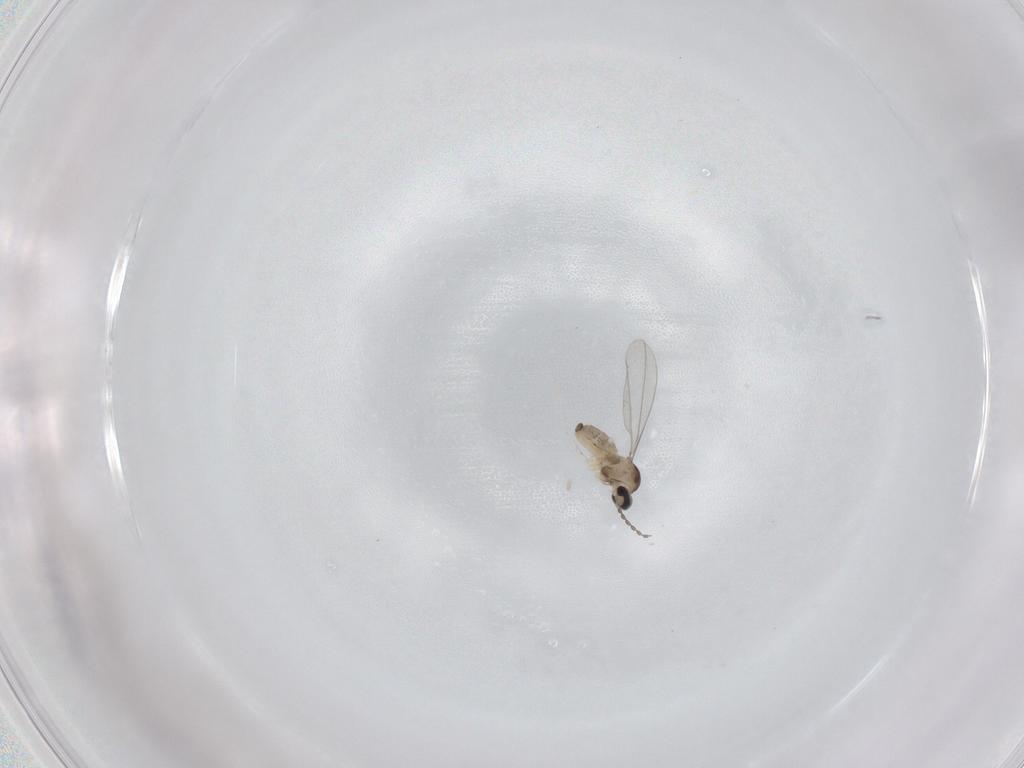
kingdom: Animalia
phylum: Arthropoda
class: Insecta
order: Diptera
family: Cecidomyiidae
